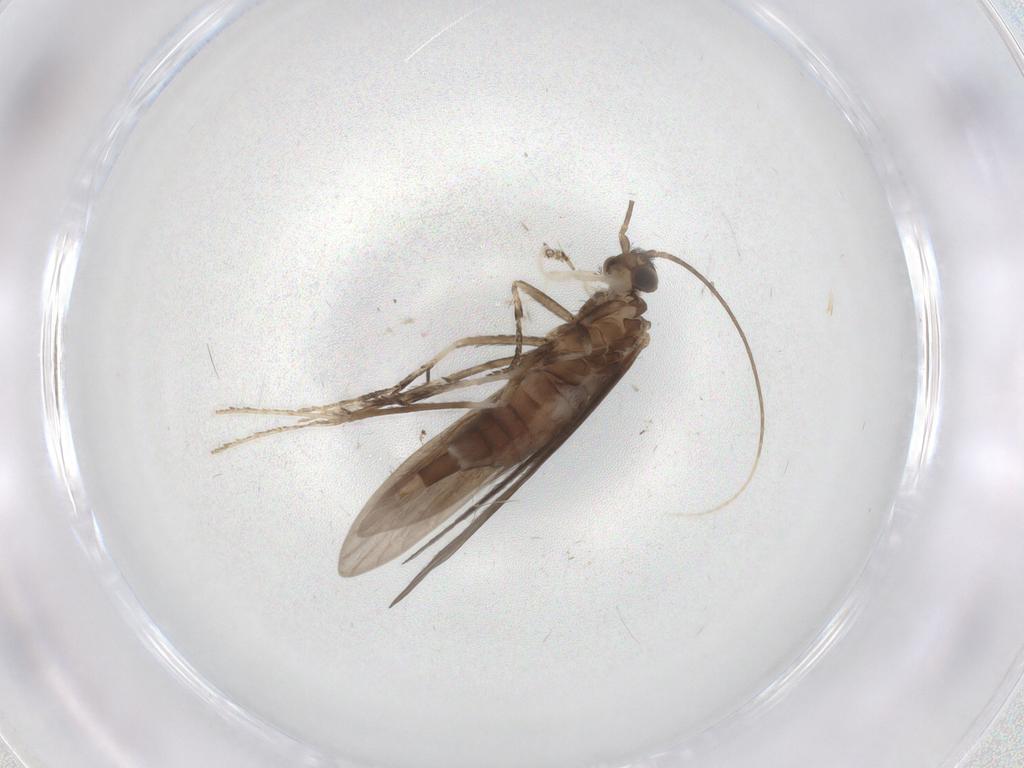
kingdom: Animalia
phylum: Arthropoda
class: Insecta
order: Trichoptera
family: Xiphocentronidae
